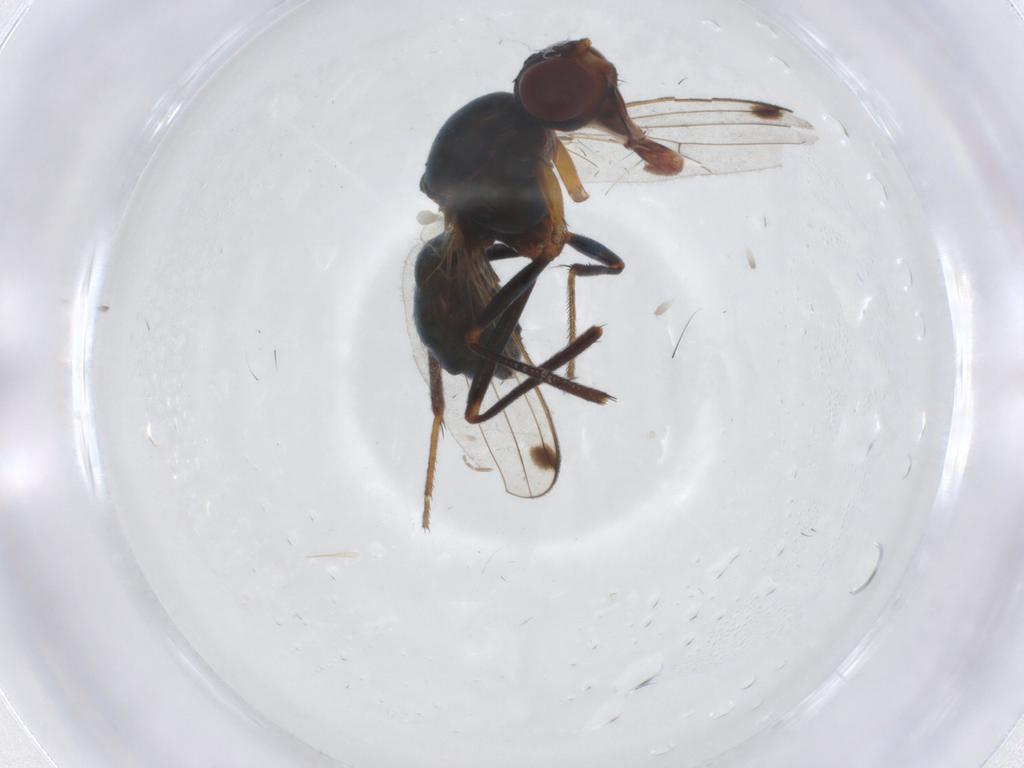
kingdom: Animalia
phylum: Arthropoda
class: Insecta
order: Diptera
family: Sepsidae
